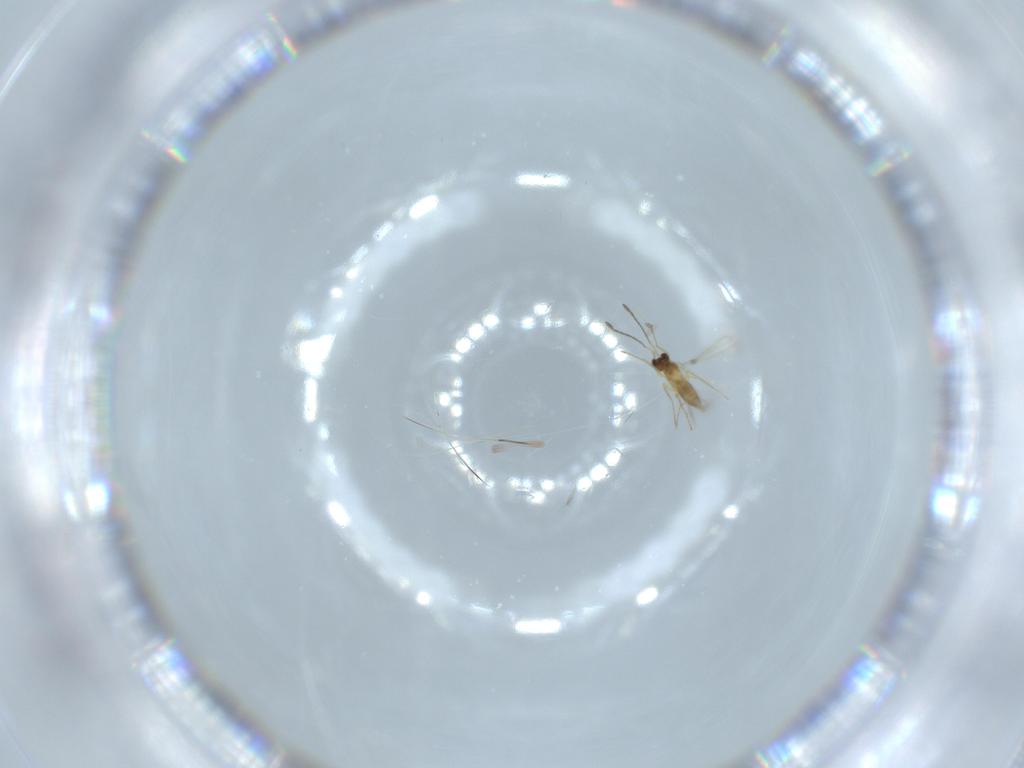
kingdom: Animalia
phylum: Arthropoda
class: Insecta
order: Hymenoptera
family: Mymaridae
